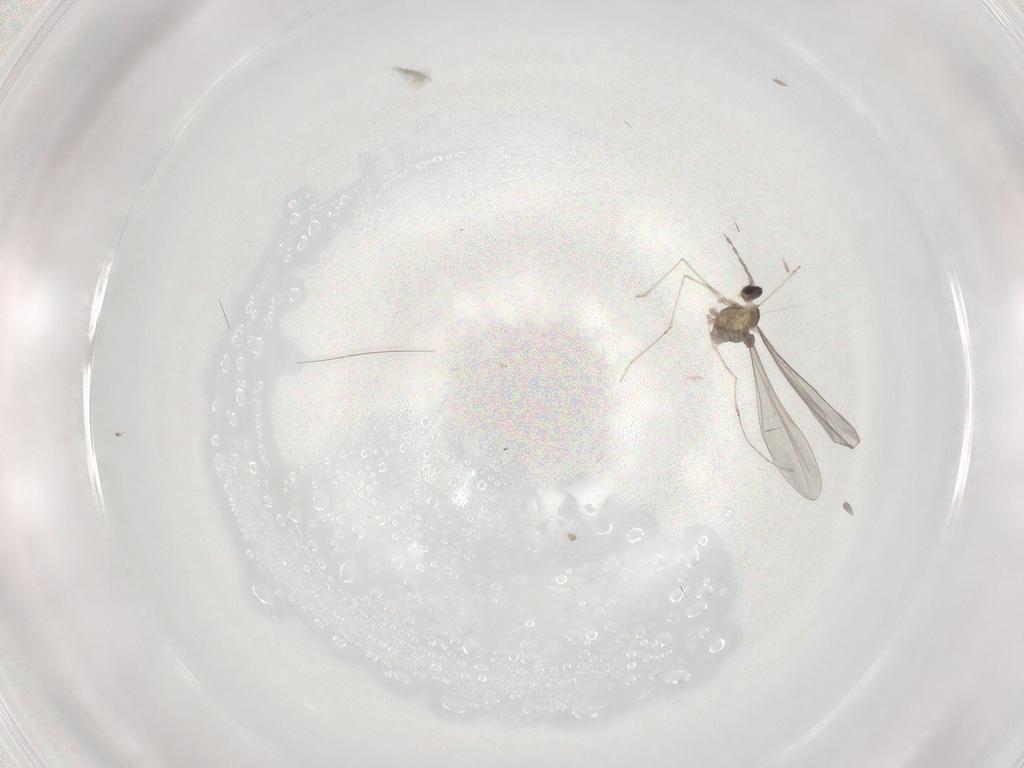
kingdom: Animalia
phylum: Arthropoda
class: Insecta
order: Diptera
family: Cecidomyiidae
